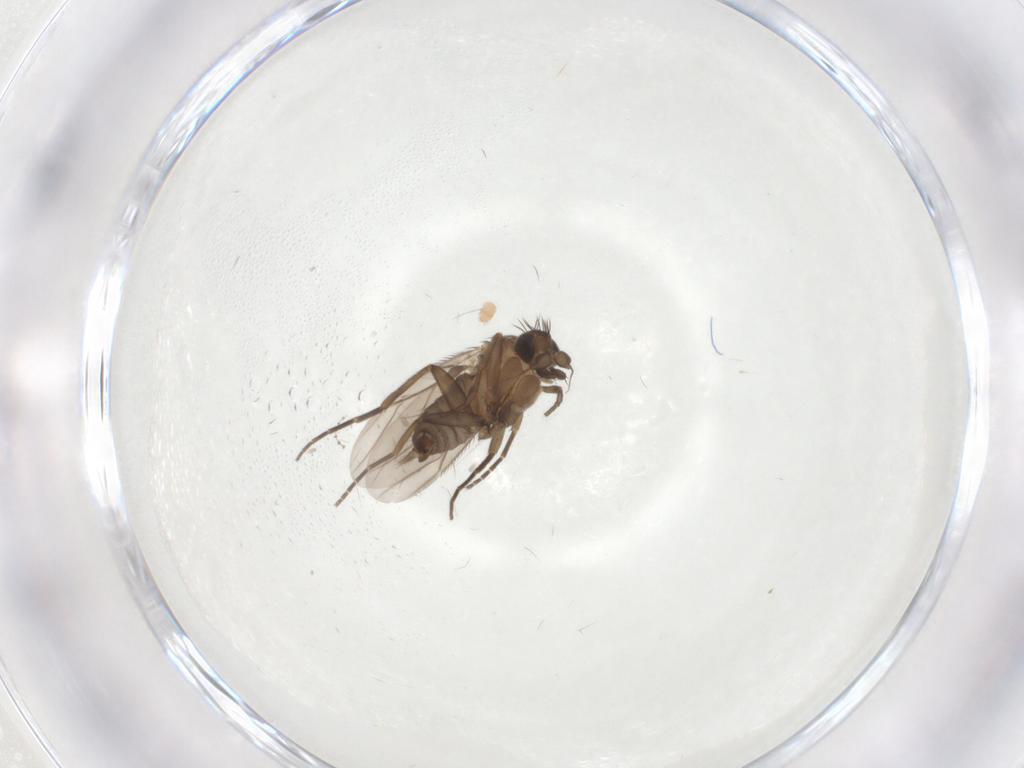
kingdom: Animalia
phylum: Arthropoda
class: Insecta
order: Diptera
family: Phoridae
